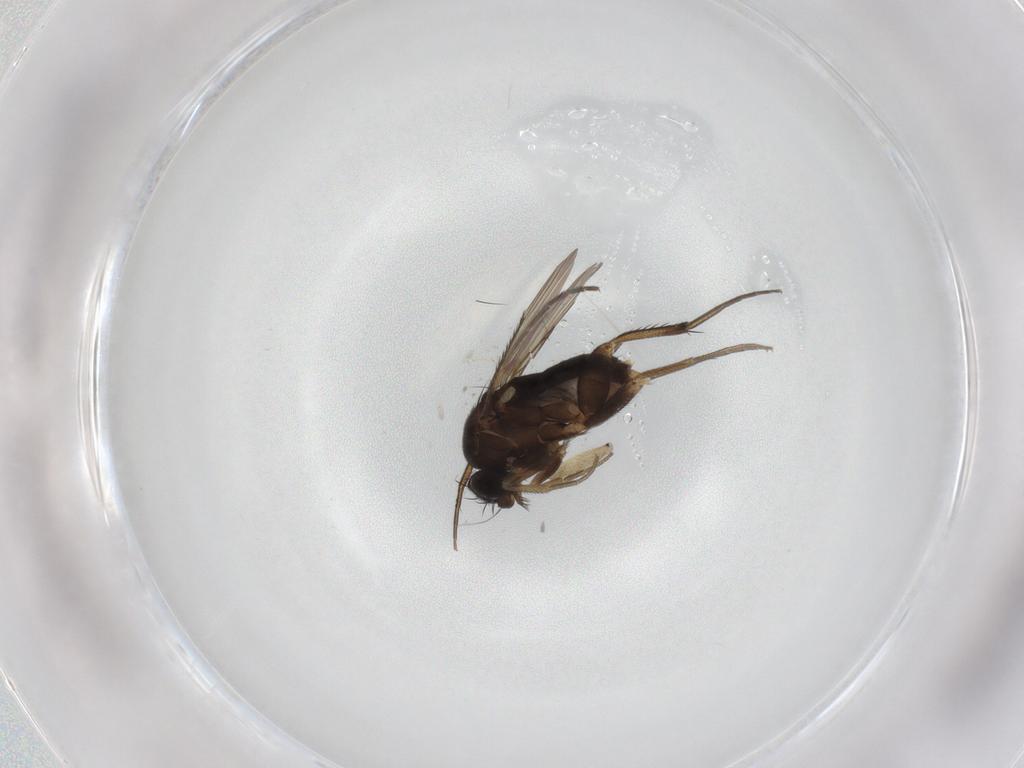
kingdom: Animalia
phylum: Arthropoda
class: Insecta
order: Diptera
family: Phoridae
